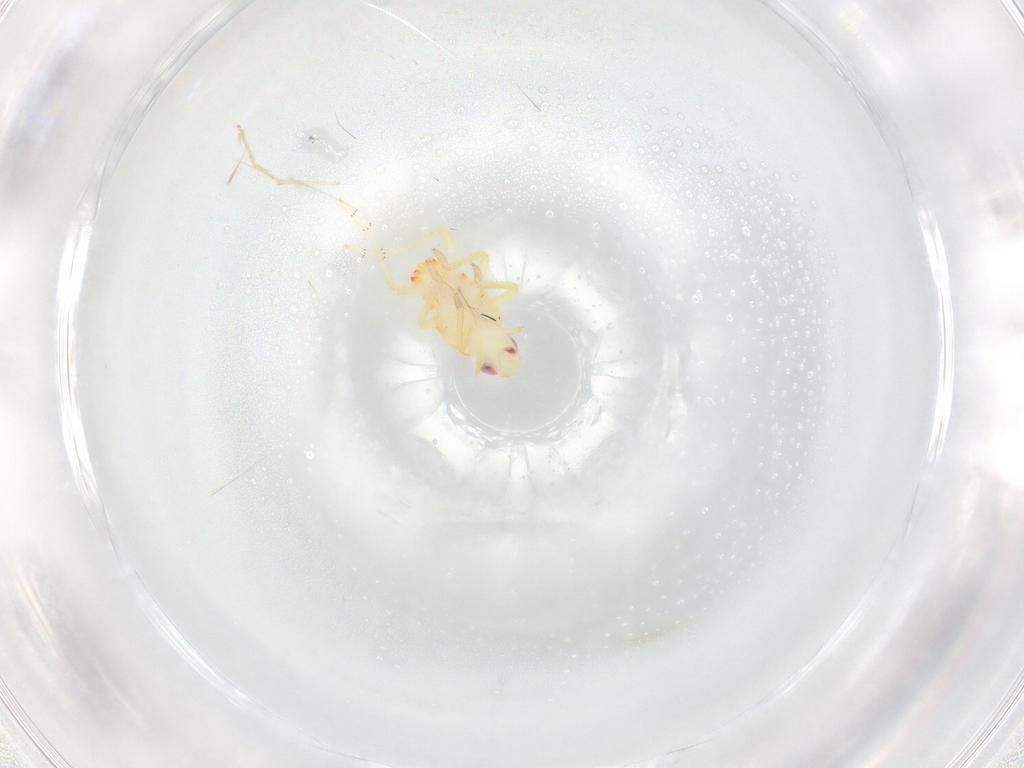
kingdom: Animalia
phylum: Arthropoda
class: Insecta
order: Hemiptera
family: Tropiduchidae
